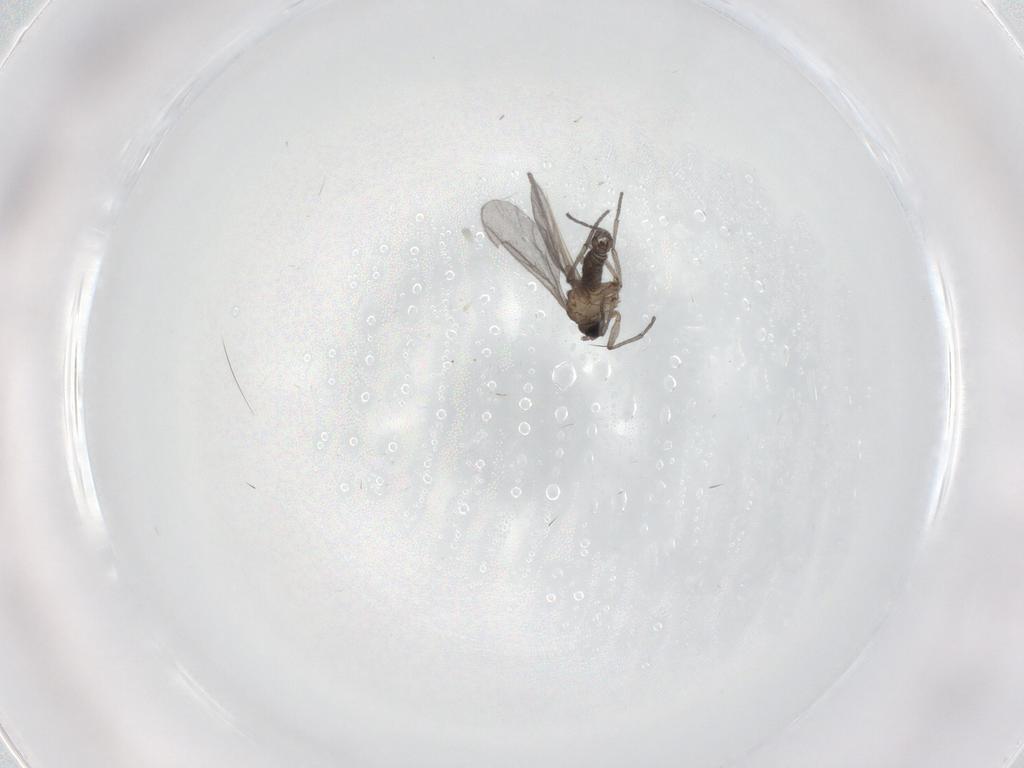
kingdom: Animalia
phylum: Arthropoda
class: Insecta
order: Diptera
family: Sciaridae
